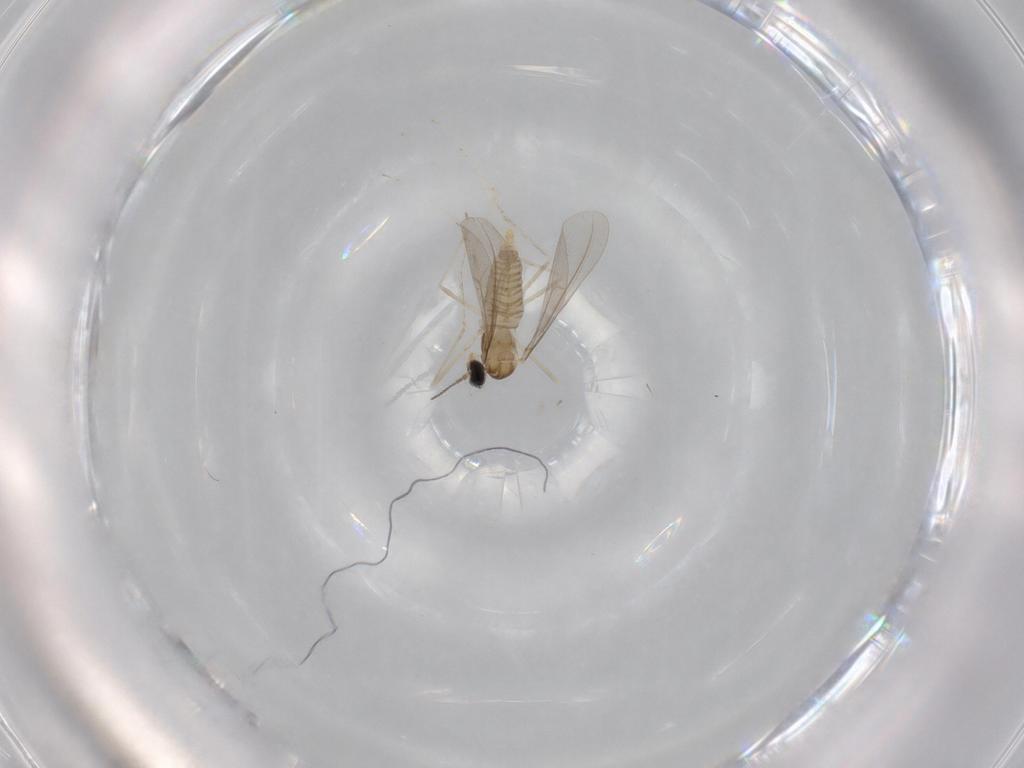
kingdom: Animalia
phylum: Arthropoda
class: Insecta
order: Diptera
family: Cecidomyiidae
